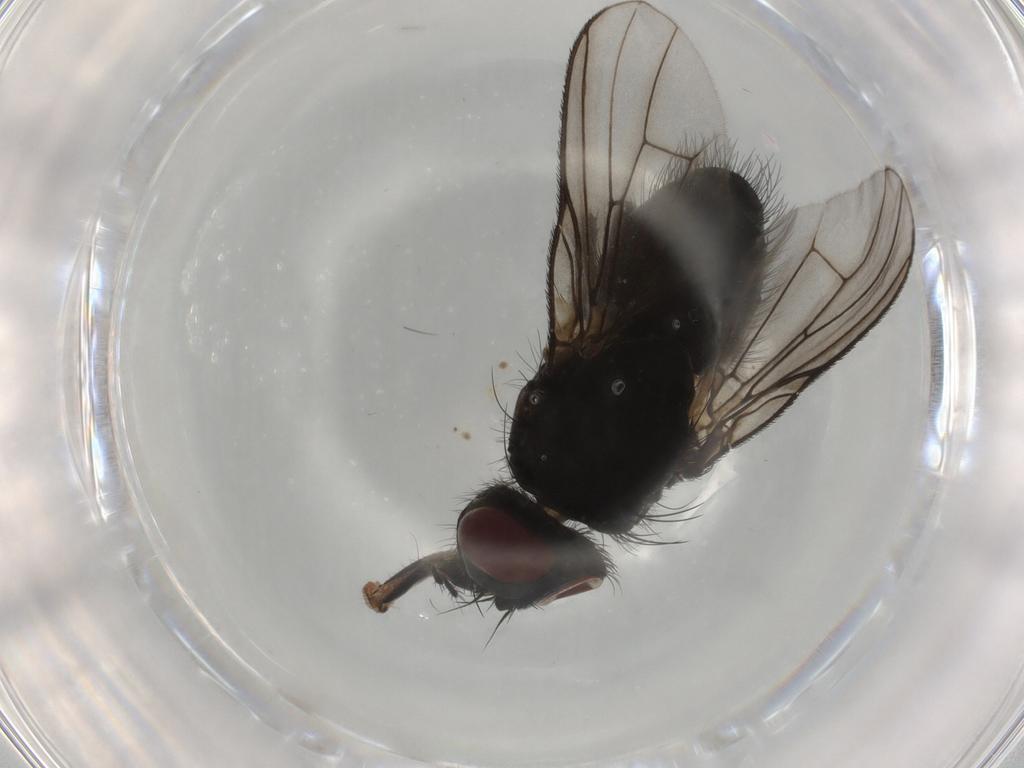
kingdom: Animalia
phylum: Arthropoda
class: Insecta
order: Diptera
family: Muscidae
